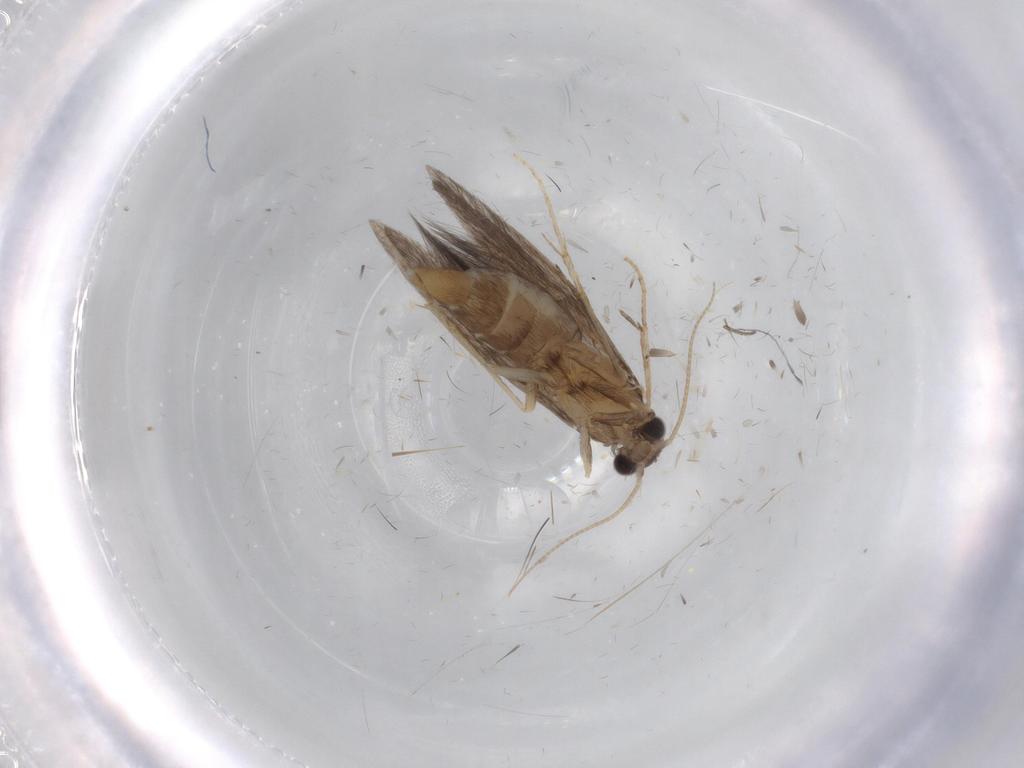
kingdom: Animalia
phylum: Arthropoda
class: Insecta
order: Trichoptera
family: Hydroptilidae
